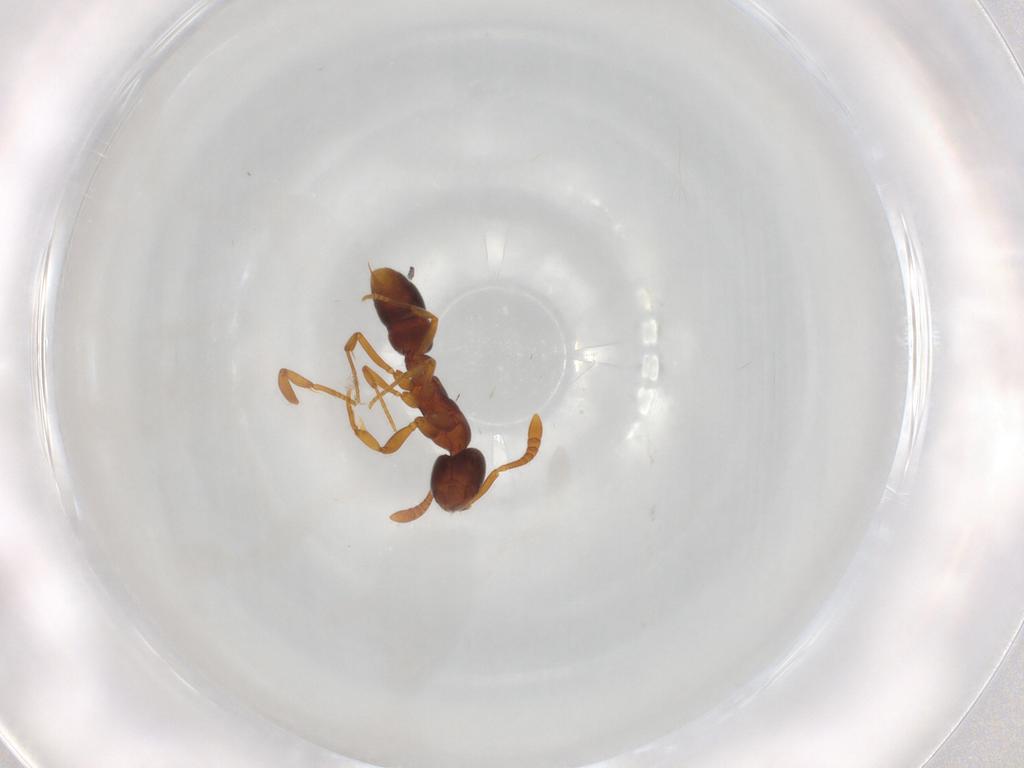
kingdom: Animalia
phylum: Arthropoda
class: Insecta
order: Hymenoptera
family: Formicidae
